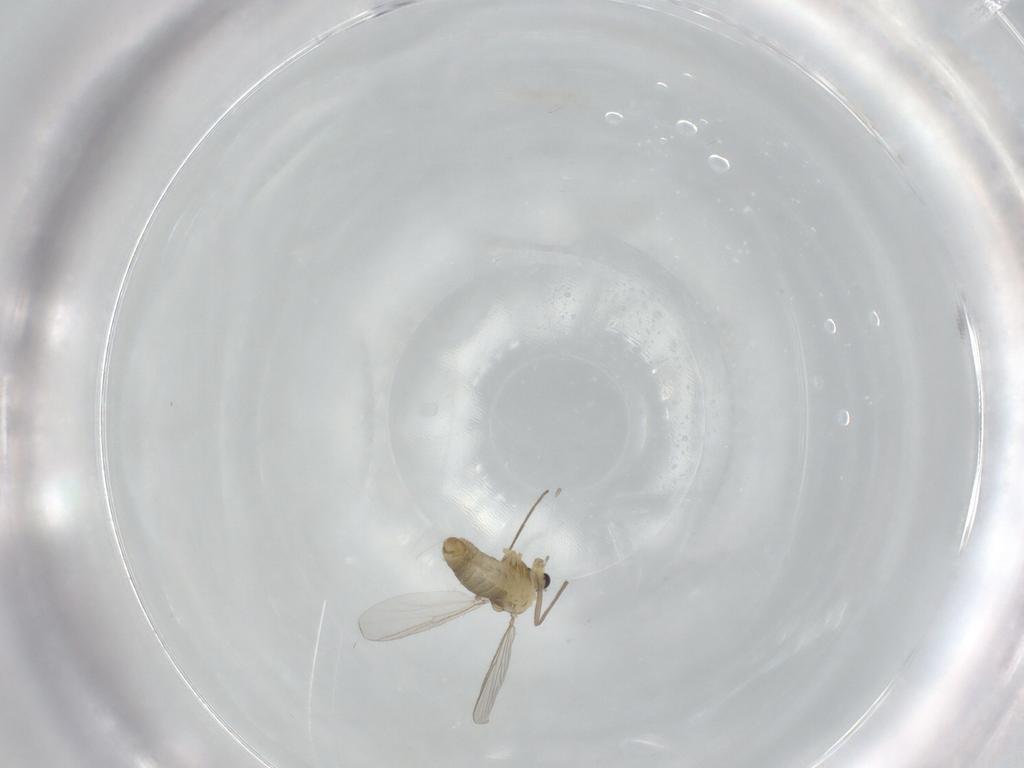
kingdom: Animalia
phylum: Arthropoda
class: Insecta
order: Diptera
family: Chironomidae
